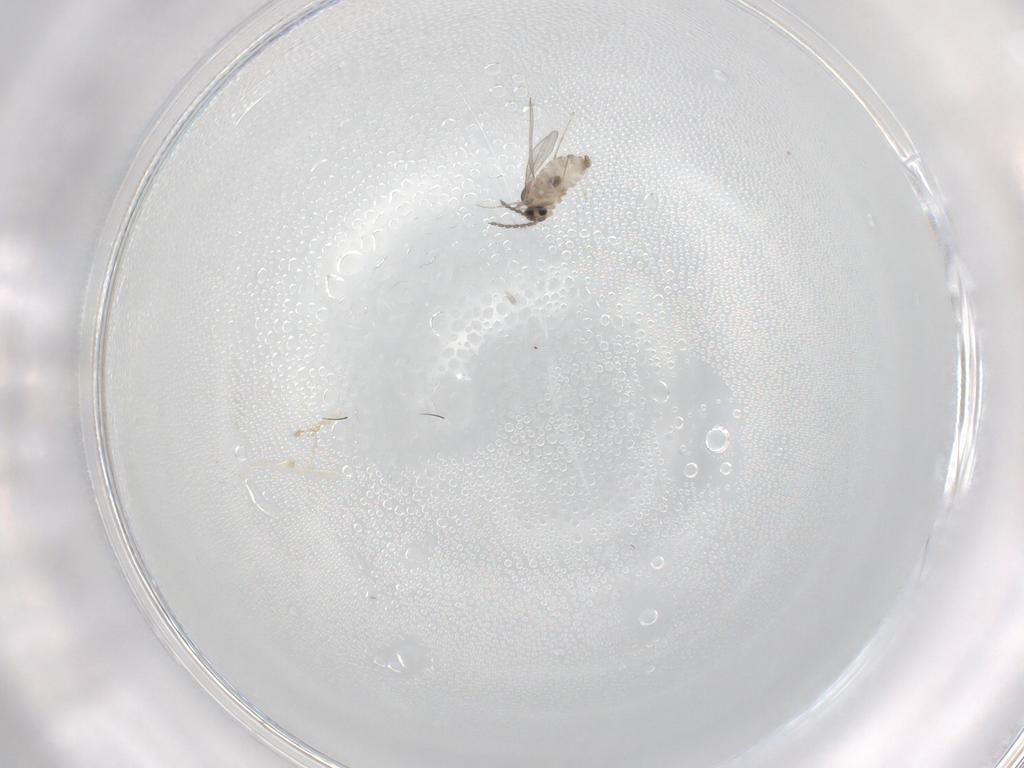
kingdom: Animalia
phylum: Arthropoda
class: Insecta
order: Diptera
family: Cecidomyiidae
